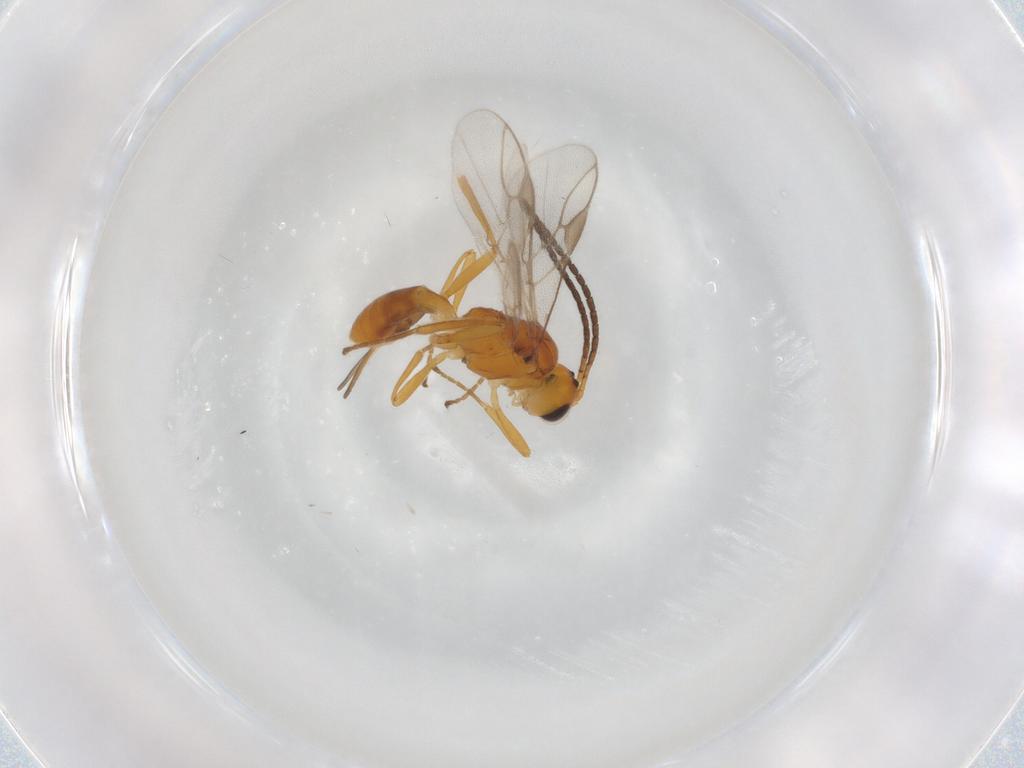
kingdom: Animalia
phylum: Arthropoda
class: Insecta
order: Hymenoptera
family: Braconidae
